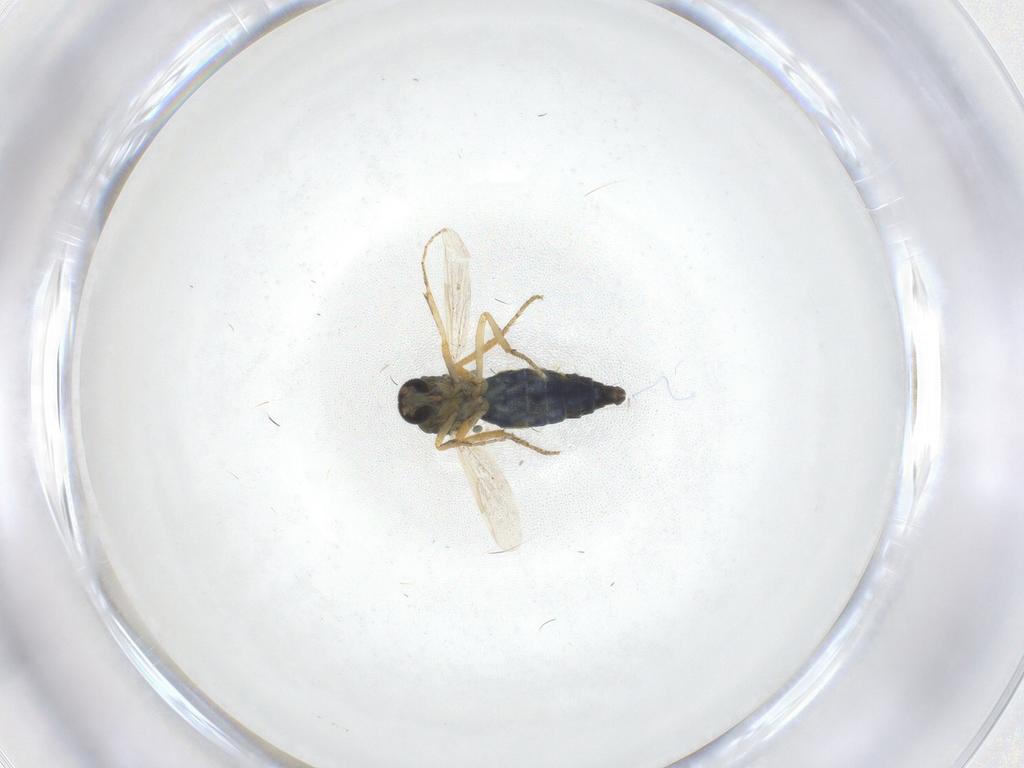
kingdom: Animalia
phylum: Arthropoda
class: Insecta
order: Diptera
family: Ceratopogonidae
